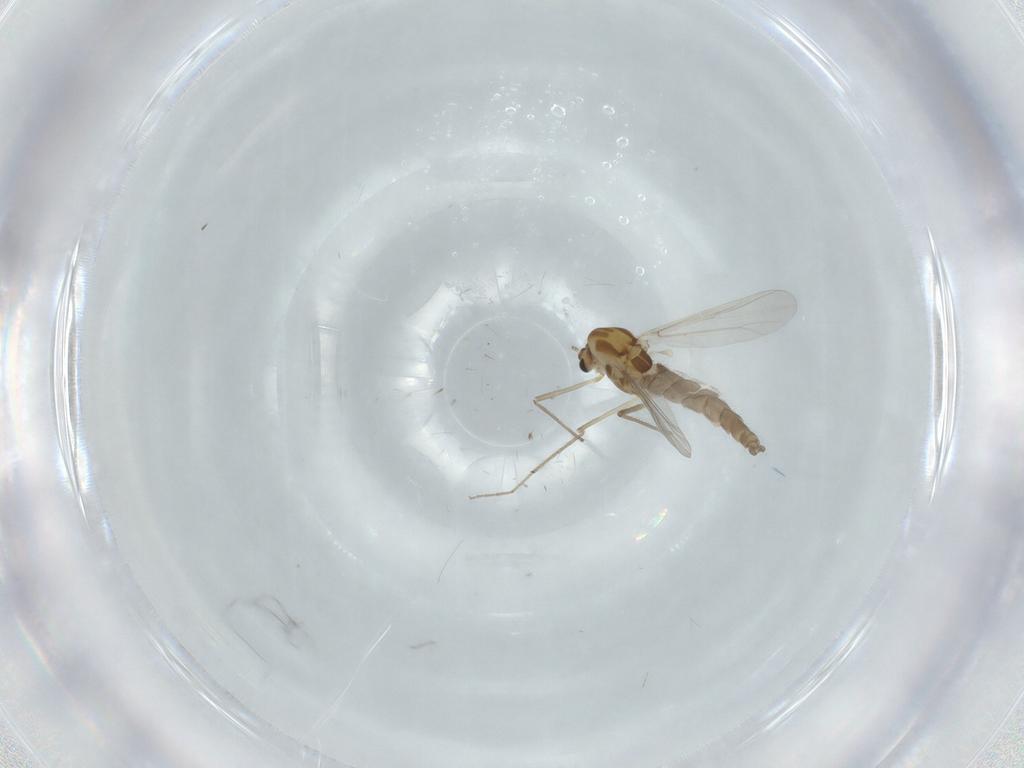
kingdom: Animalia
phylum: Arthropoda
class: Insecta
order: Diptera
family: Chironomidae
